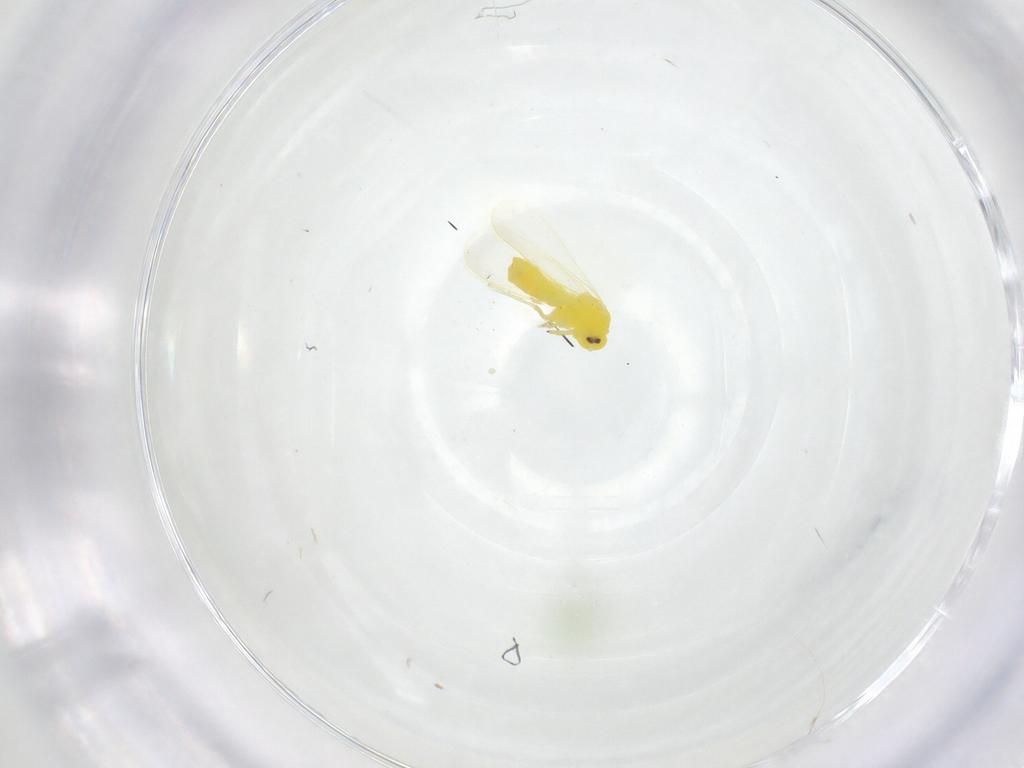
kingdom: Animalia
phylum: Arthropoda
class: Insecta
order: Hemiptera
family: Aleyrodidae
